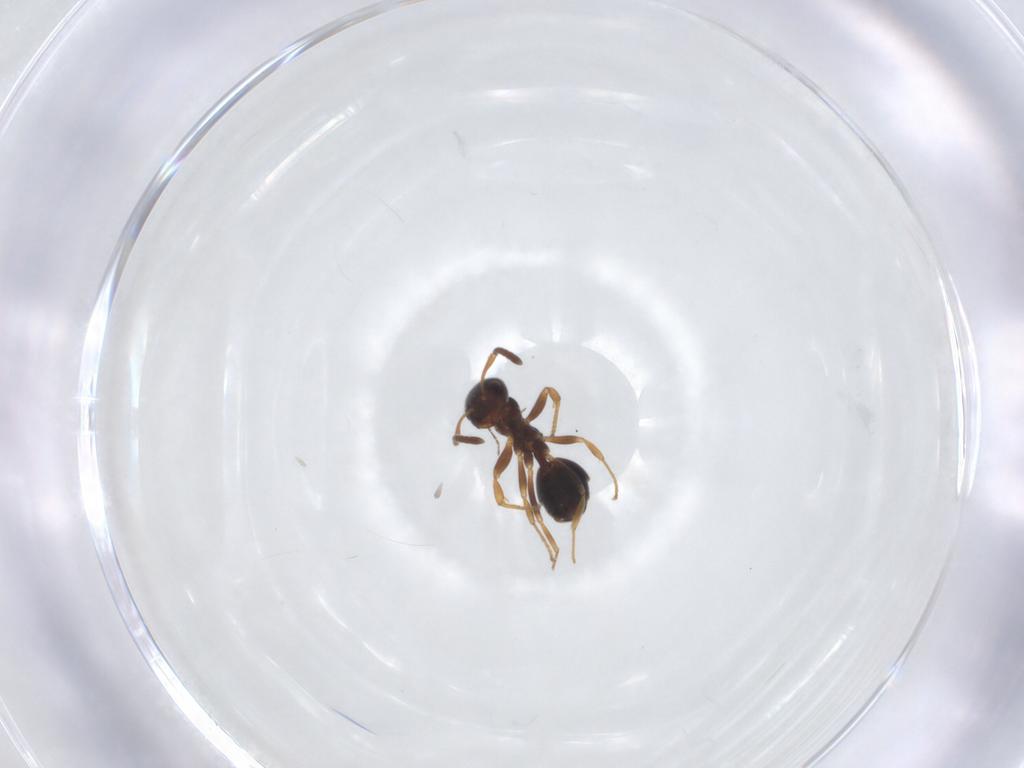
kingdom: Animalia
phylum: Arthropoda
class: Insecta
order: Hymenoptera
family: Formicidae
